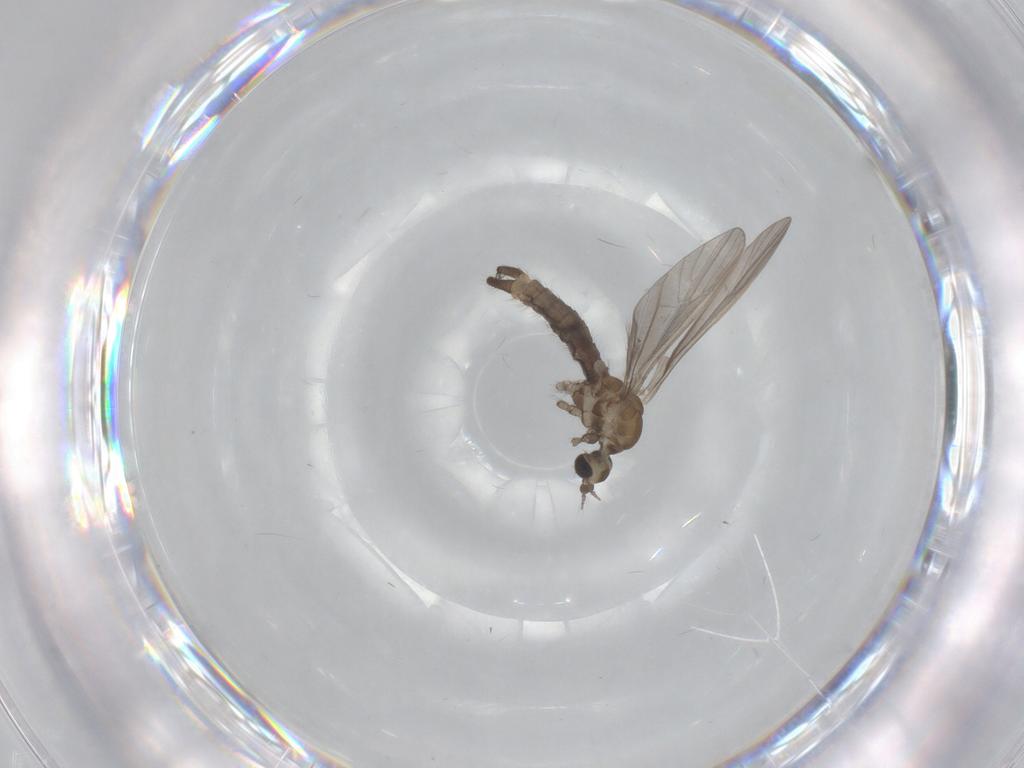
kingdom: Animalia
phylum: Arthropoda
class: Insecta
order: Diptera
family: Limoniidae
